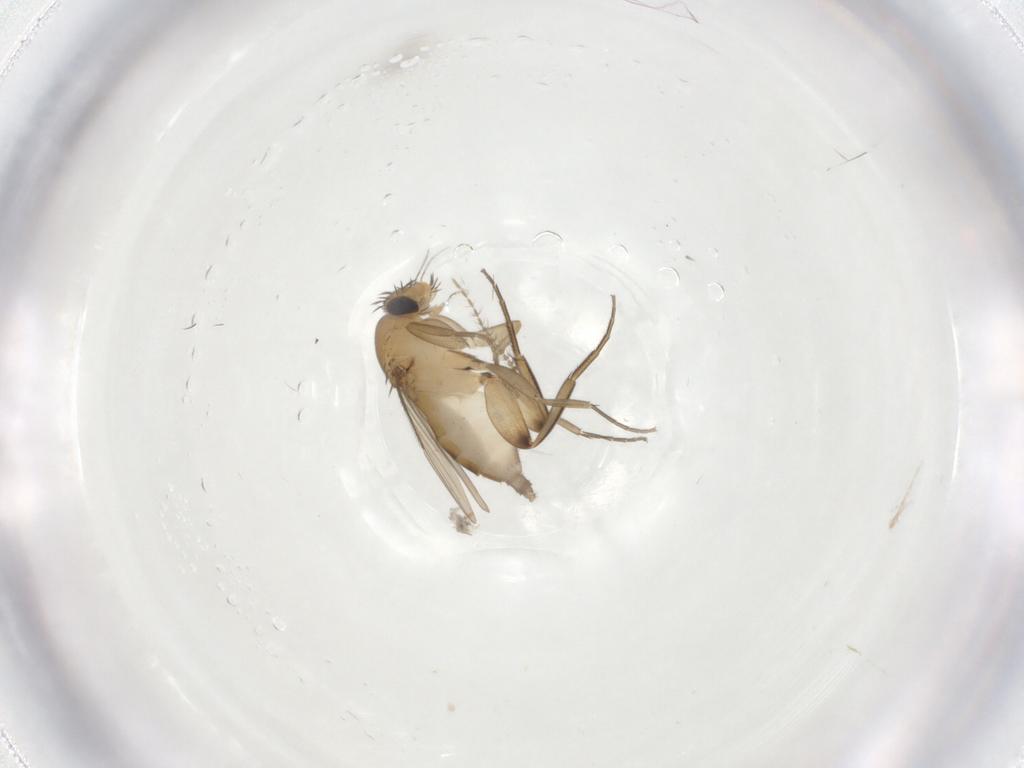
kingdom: Animalia
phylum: Arthropoda
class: Insecta
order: Diptera
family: Phoridae
